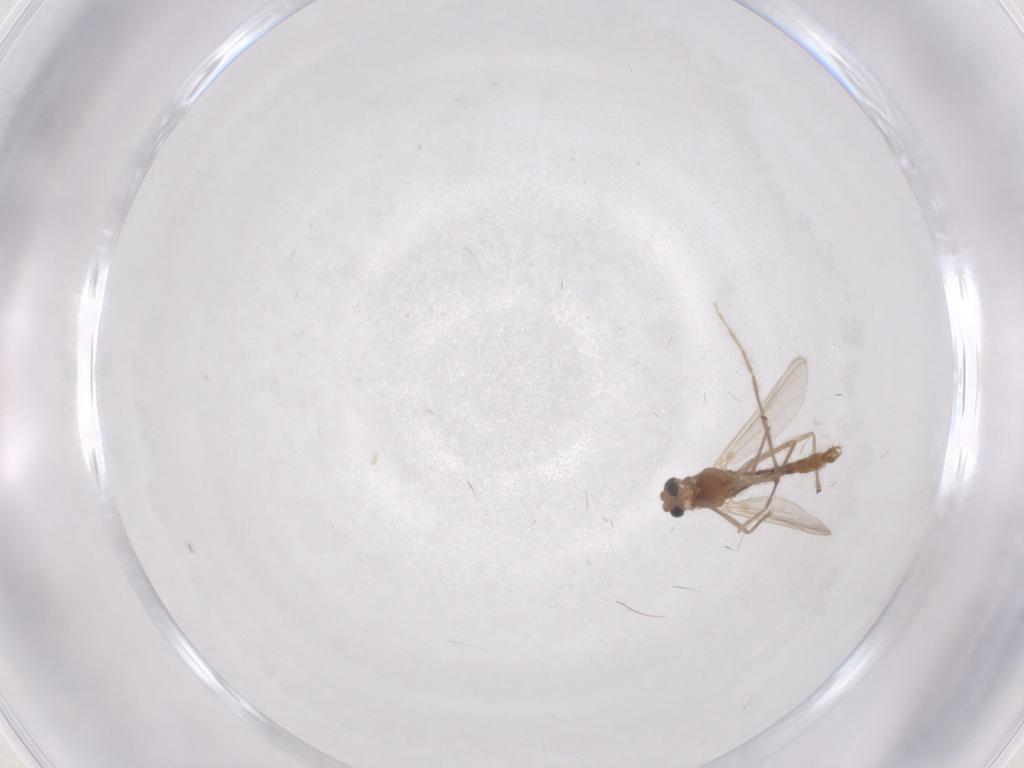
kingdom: Animalia
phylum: Arthropoda
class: Insecta
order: Diptera
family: Chironomidae
